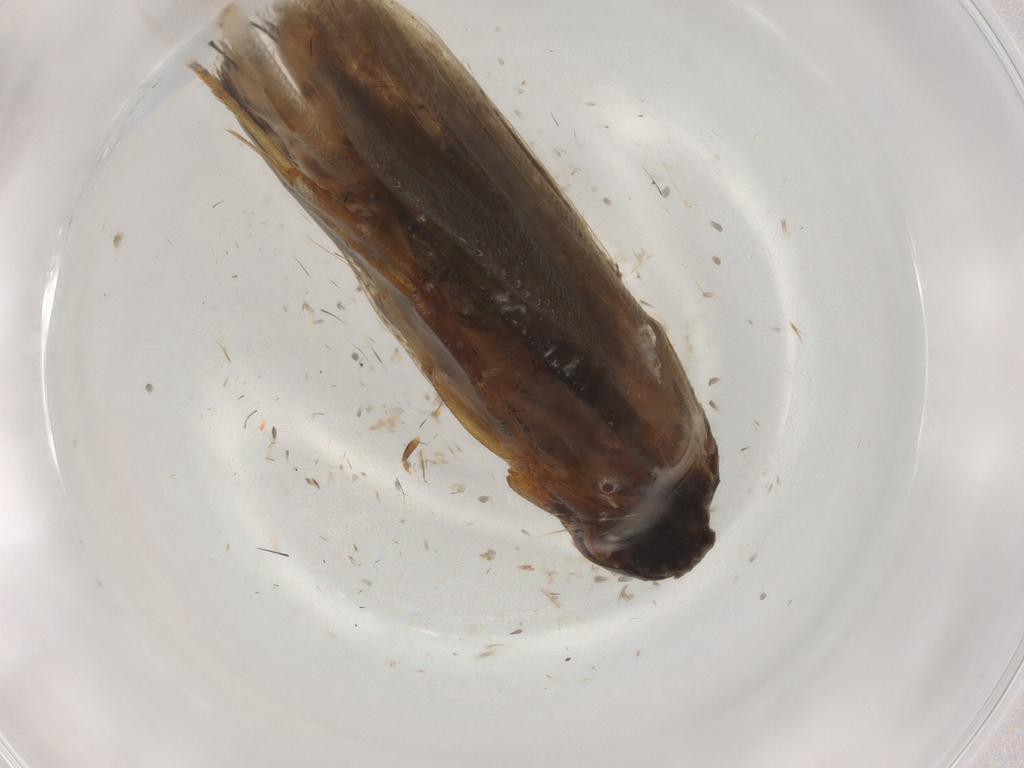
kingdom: Animalia
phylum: Arthropoda
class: Insecta
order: Lepidoptera
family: Blastobasidae
